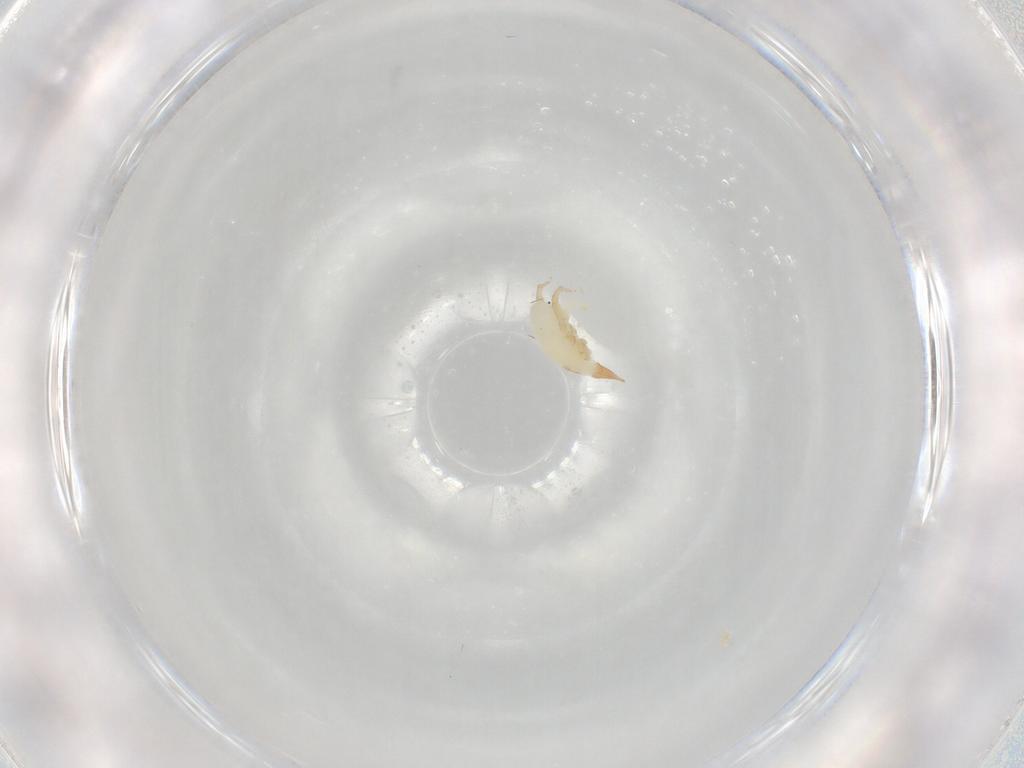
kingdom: Animalia
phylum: Arthropoda
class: Arachnida
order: Trombidiformes
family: Bdellidae
